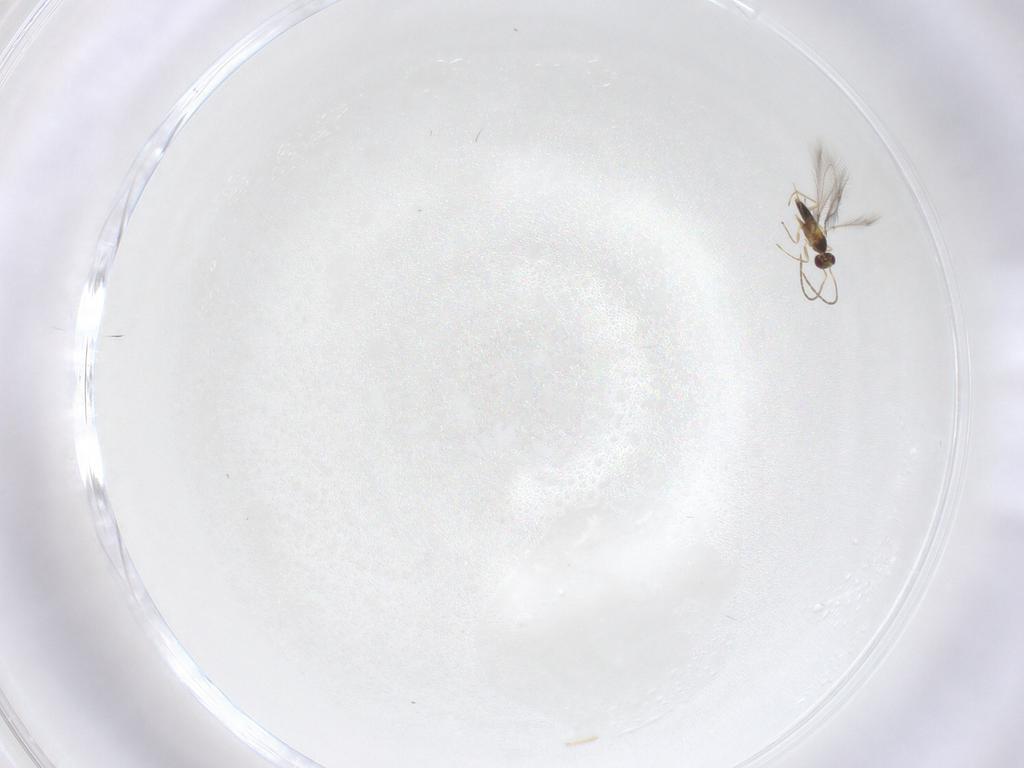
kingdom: Animalia
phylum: Arthropoda
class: Insecta
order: Hymenoptera
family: Mymaridae
